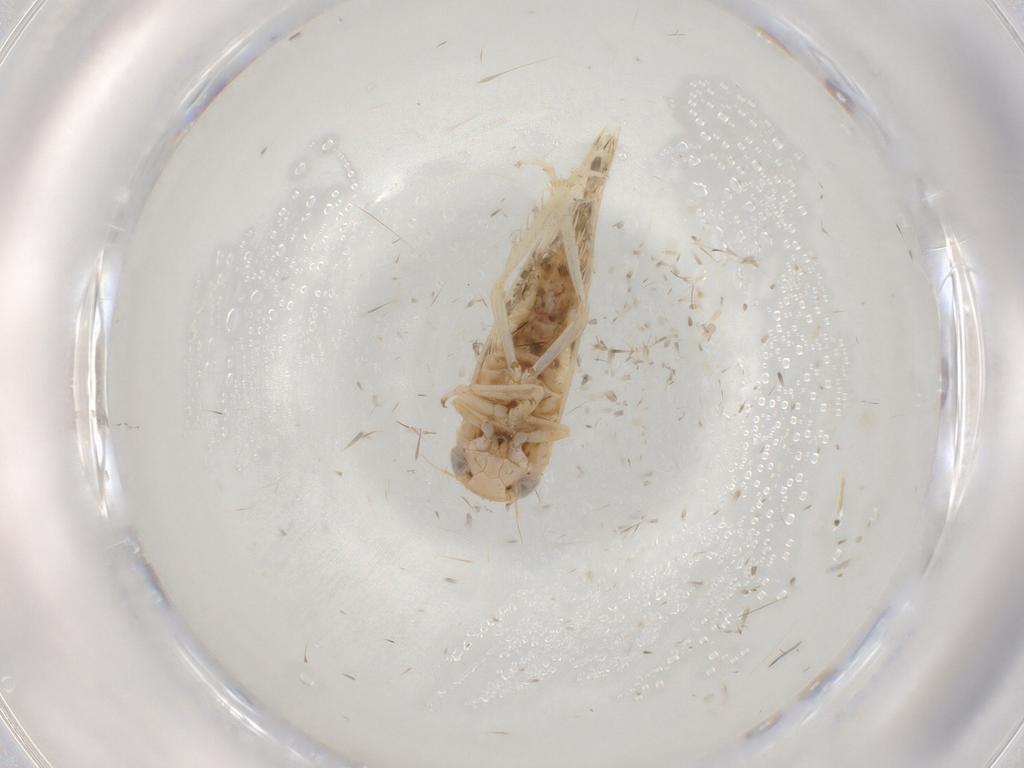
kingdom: Animalia
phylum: Arthropoda
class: Insecta
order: Hemiptera
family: Cicadellidae
